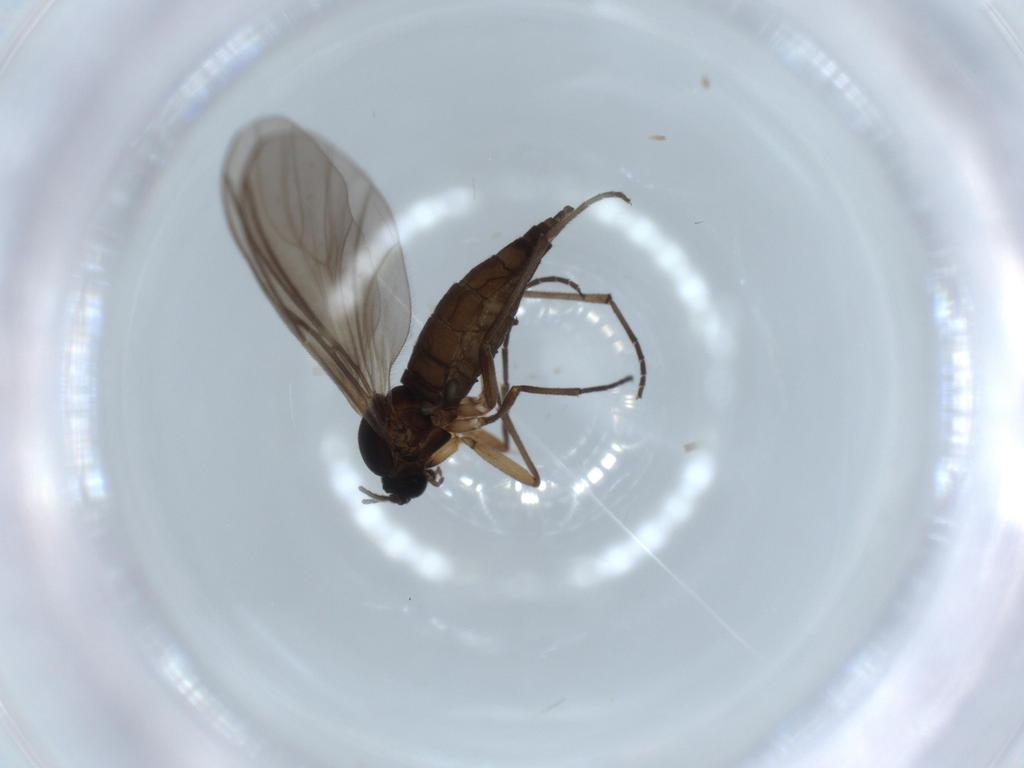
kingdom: Animalia
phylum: Arthropoda
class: Insecta
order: Diptera
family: Sciaridae
